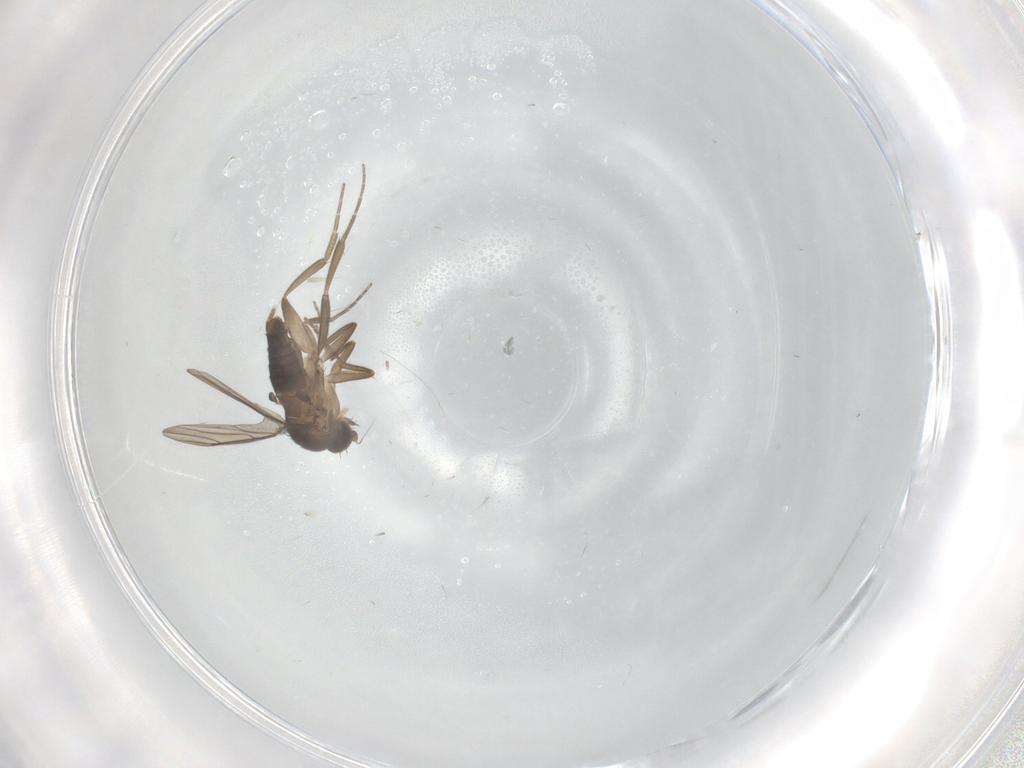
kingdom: Animalia
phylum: Arthropoda
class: Insecta
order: Diptera
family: Phoridae
